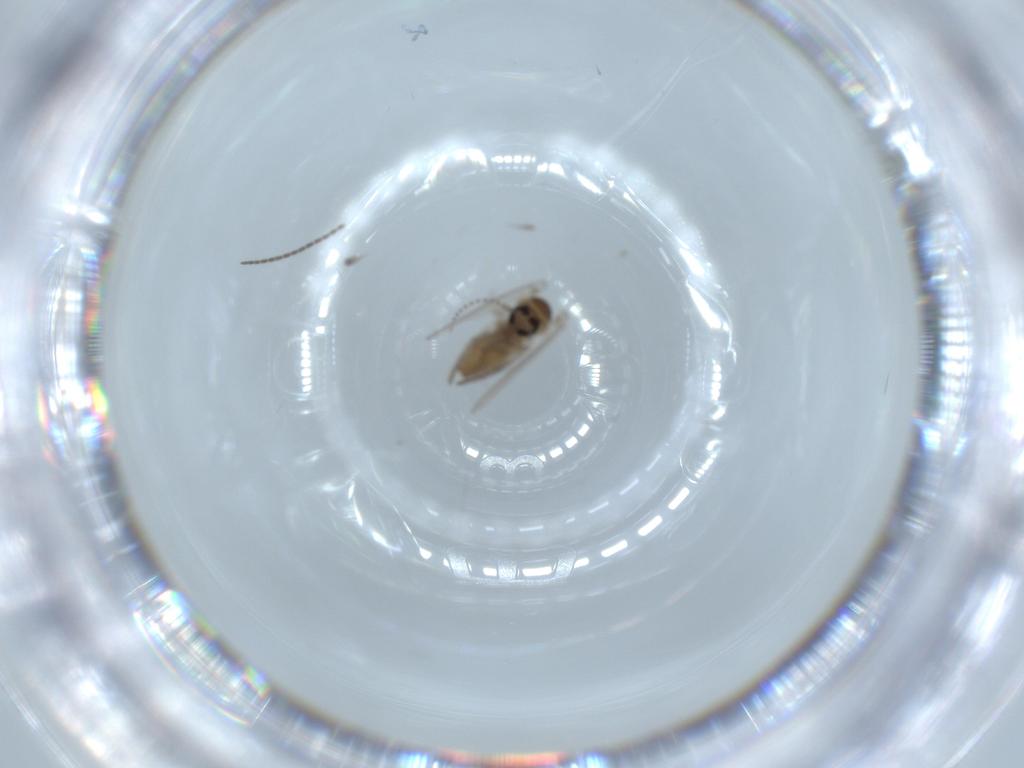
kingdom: Animalia
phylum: Arthropoda
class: Insecta
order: Diptera
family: Psychodidae
